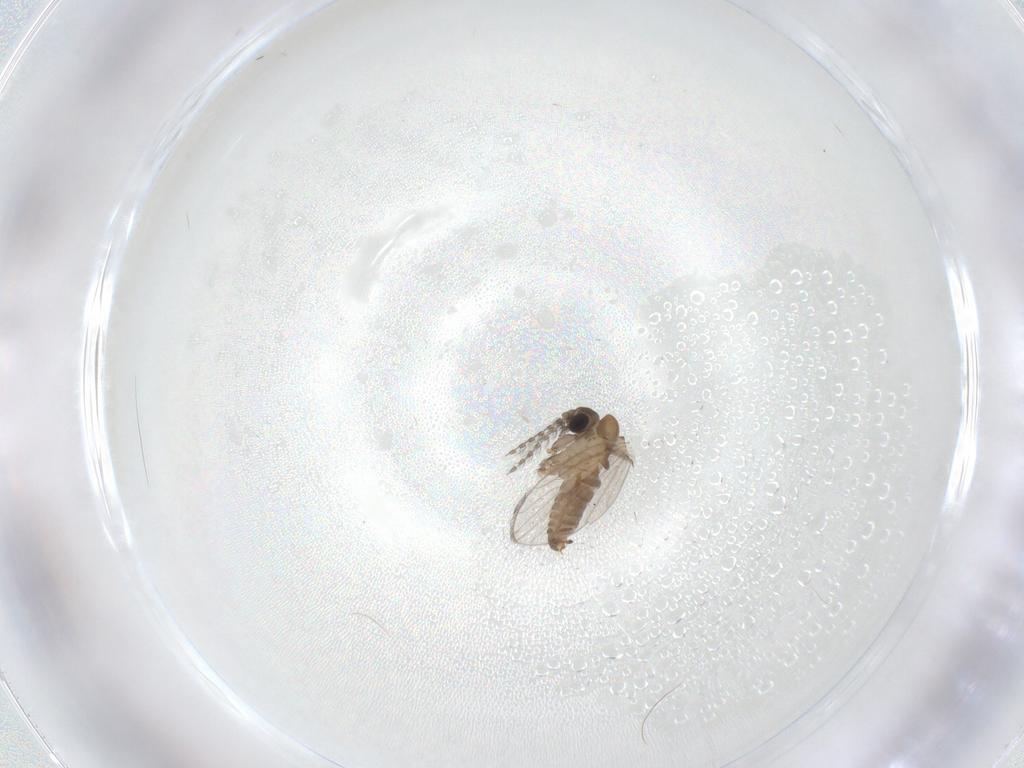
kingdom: Animalia
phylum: Arthropoda
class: Insecta
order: Diptera
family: Psychodidae
